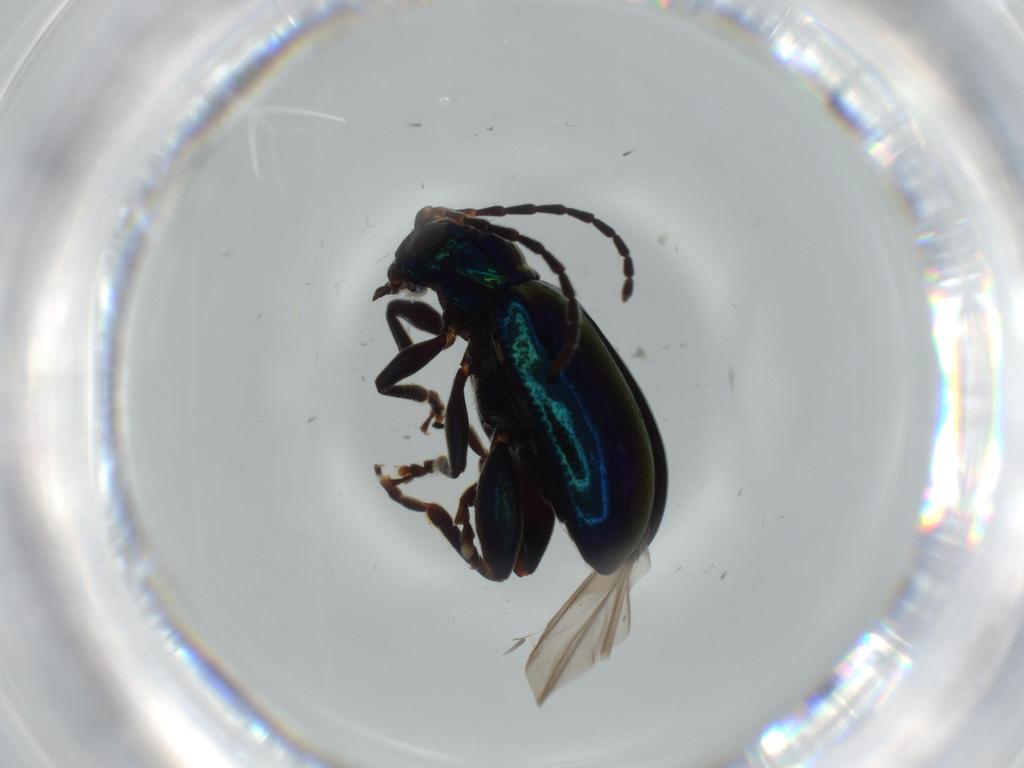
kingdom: Animalia
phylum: Arthropoda
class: Insecta
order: Coleoptera
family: Chrysomelidae
